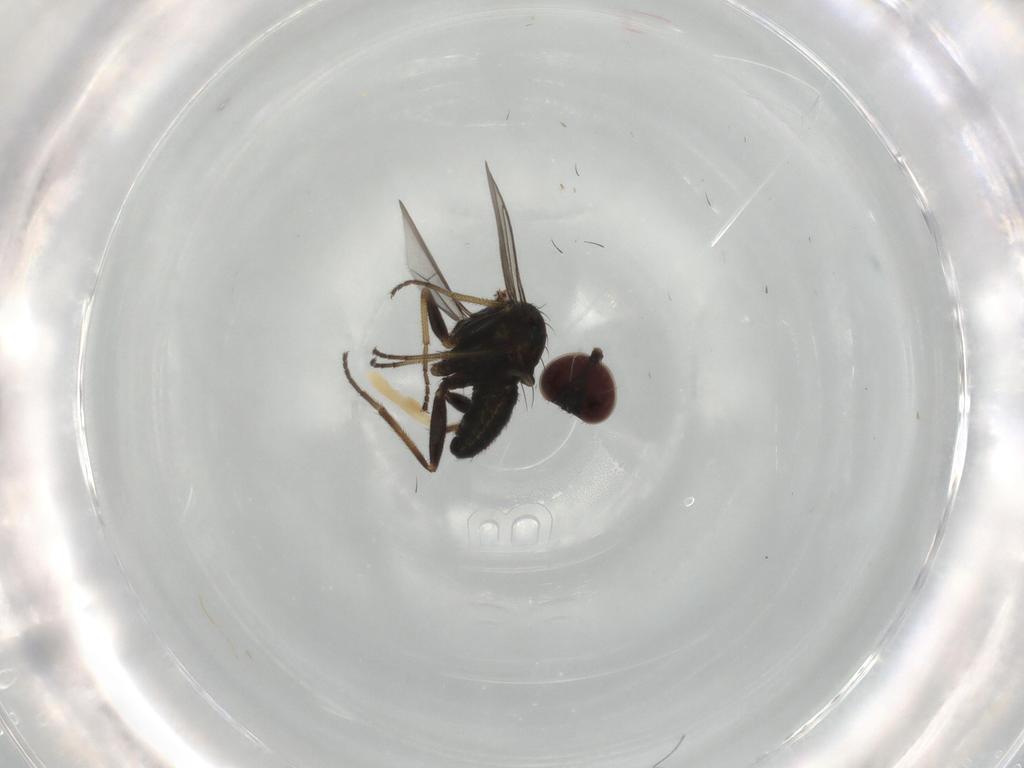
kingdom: Animalia
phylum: Arthropoda
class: Insecta
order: Diptera
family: Dolichopodidae
